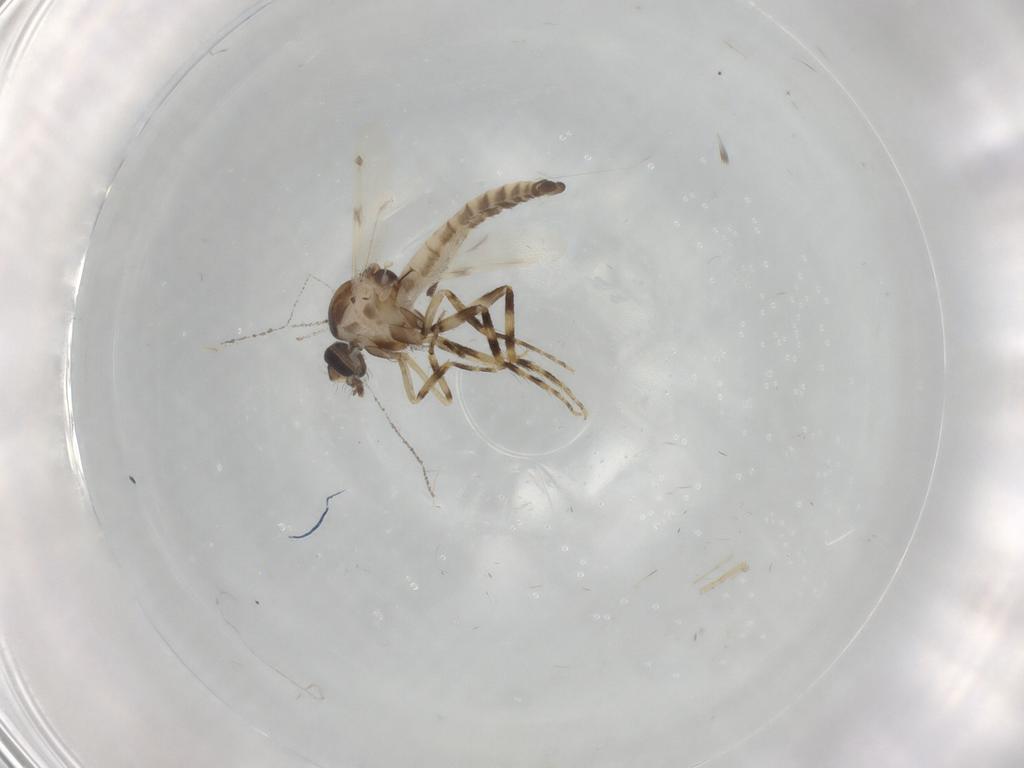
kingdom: Animalia
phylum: Arthropoda
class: Insecta
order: Diptera
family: Ceratopogonidae
